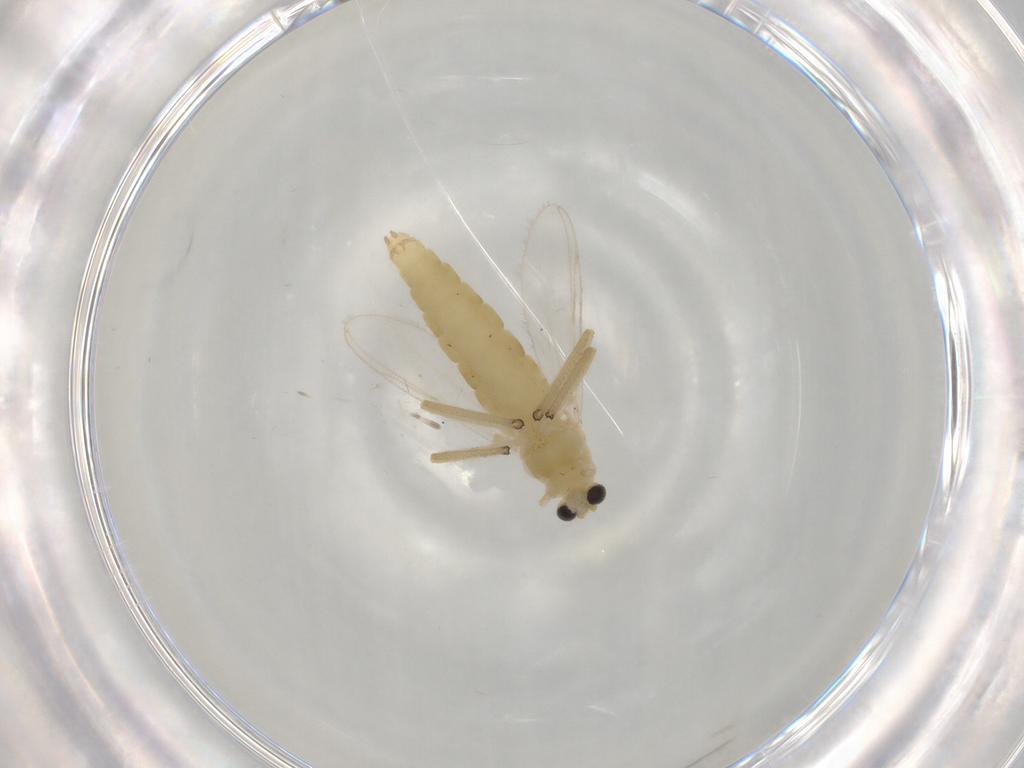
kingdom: Animalia
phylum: Arthropoda
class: Insecta
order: Diptera
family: Chironomidae
